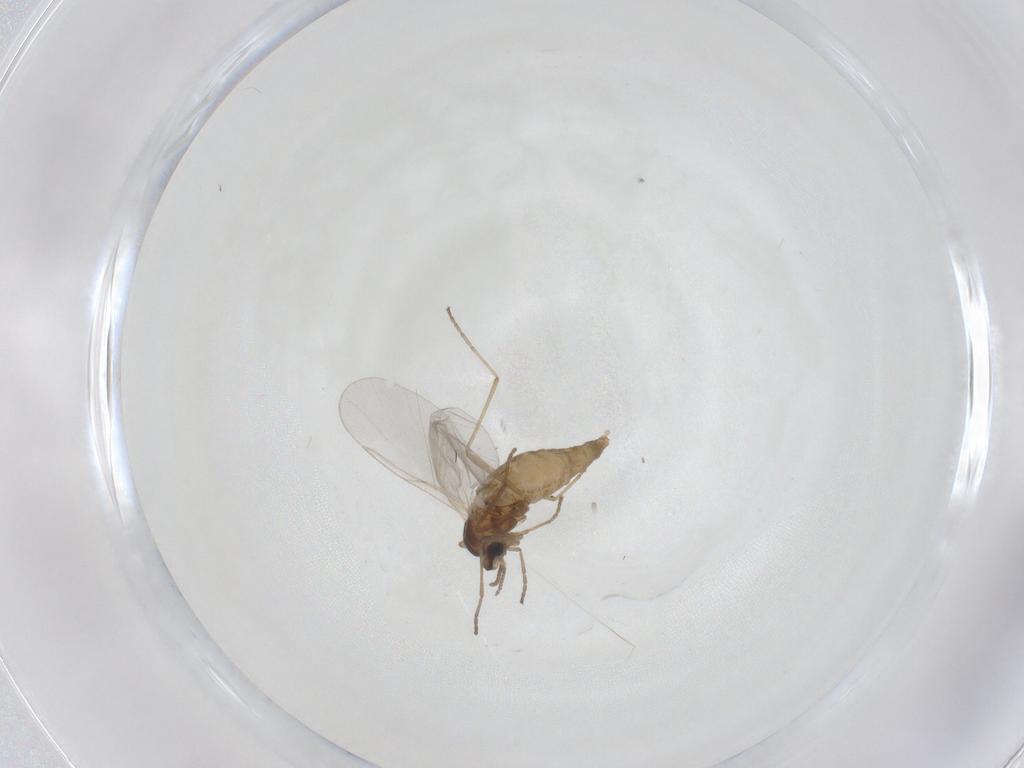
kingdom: Animalia
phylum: Arthropoda
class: Insecta
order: Diptera
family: Cecidomyiidae
